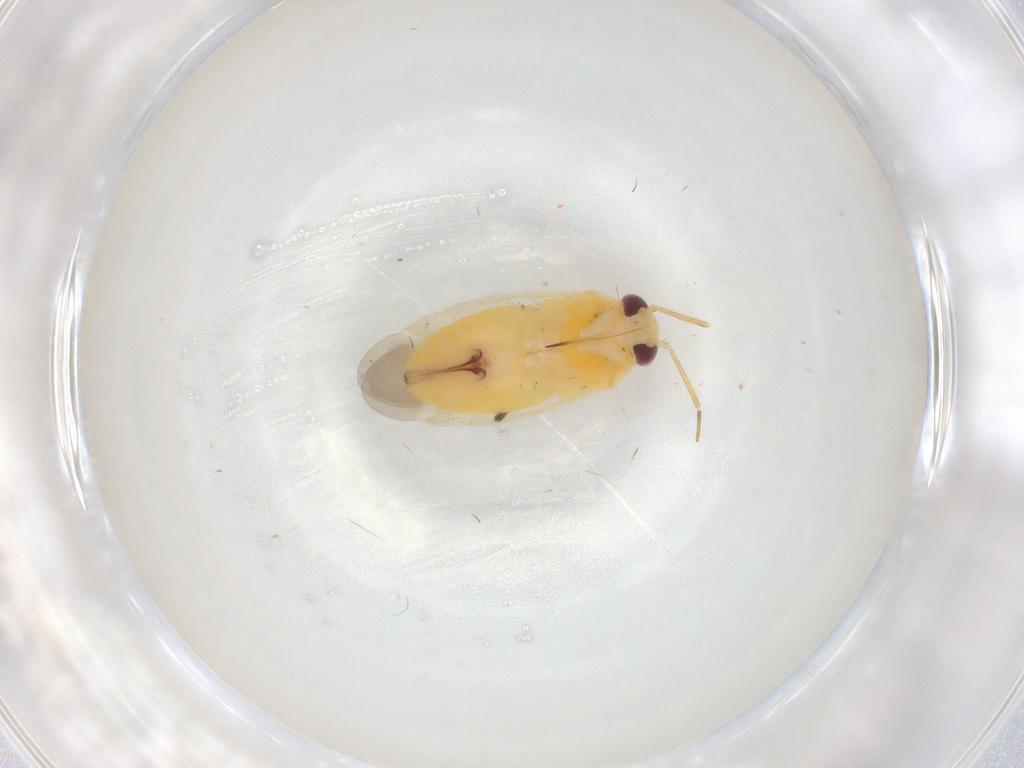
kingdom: Animalia
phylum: Arthropoda
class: Insecta
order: Hemiptera
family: Miridae
